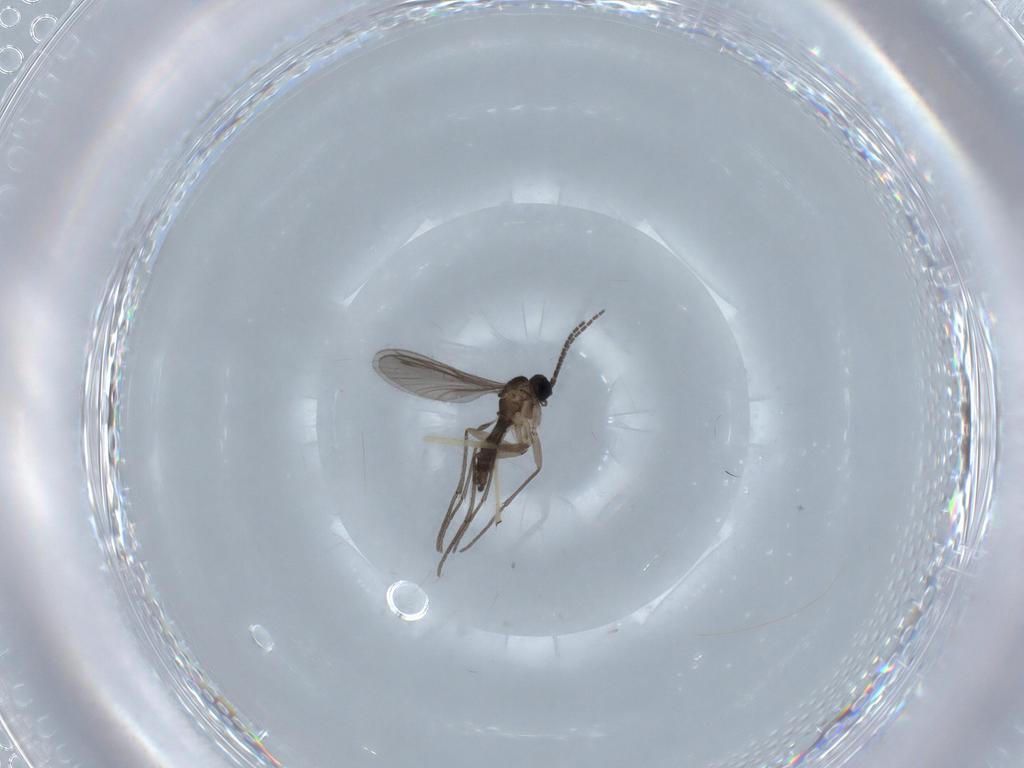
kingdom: Animalia
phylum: Arthropoda
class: Insecta
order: Diptera
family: Sciaridae
